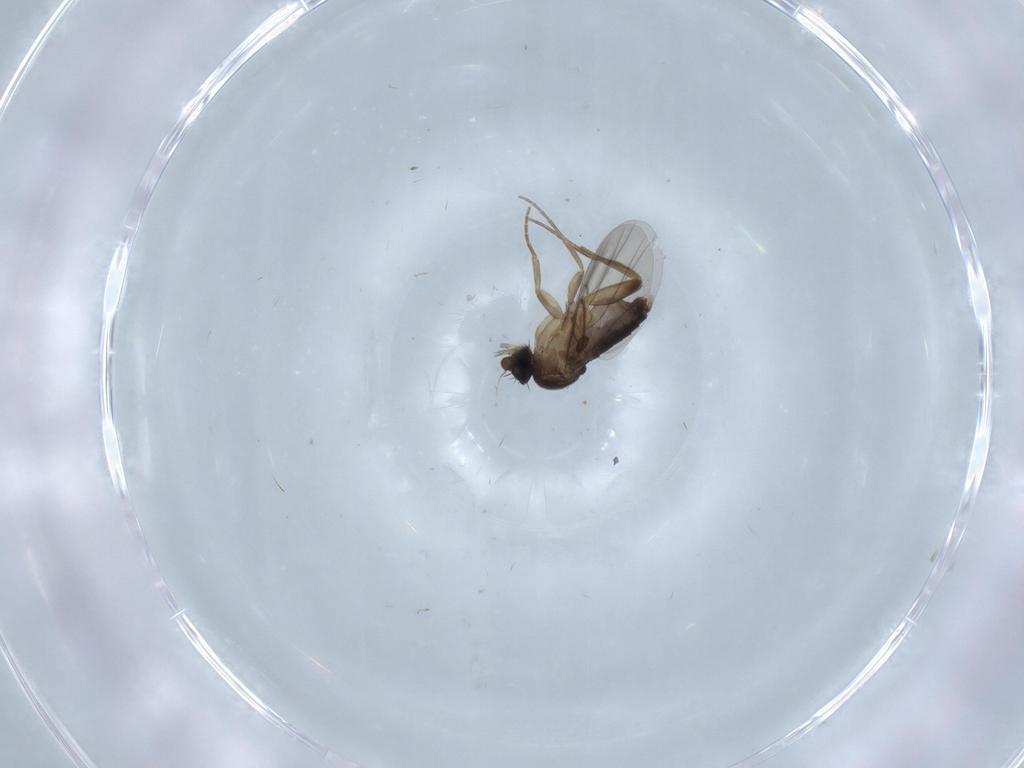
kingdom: Animalia
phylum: Arthropoda
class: Insecta
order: Diptera
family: Phoridae
